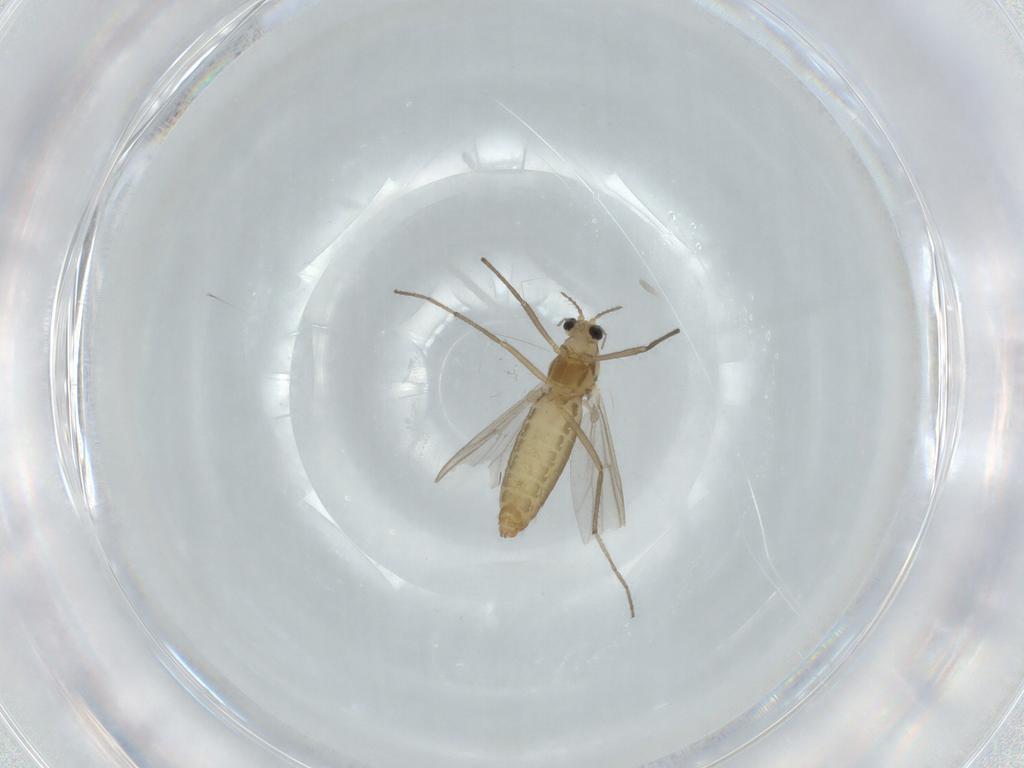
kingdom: Animalia
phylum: Arthropoda
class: Insecta
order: Diptera
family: Chironomidae
